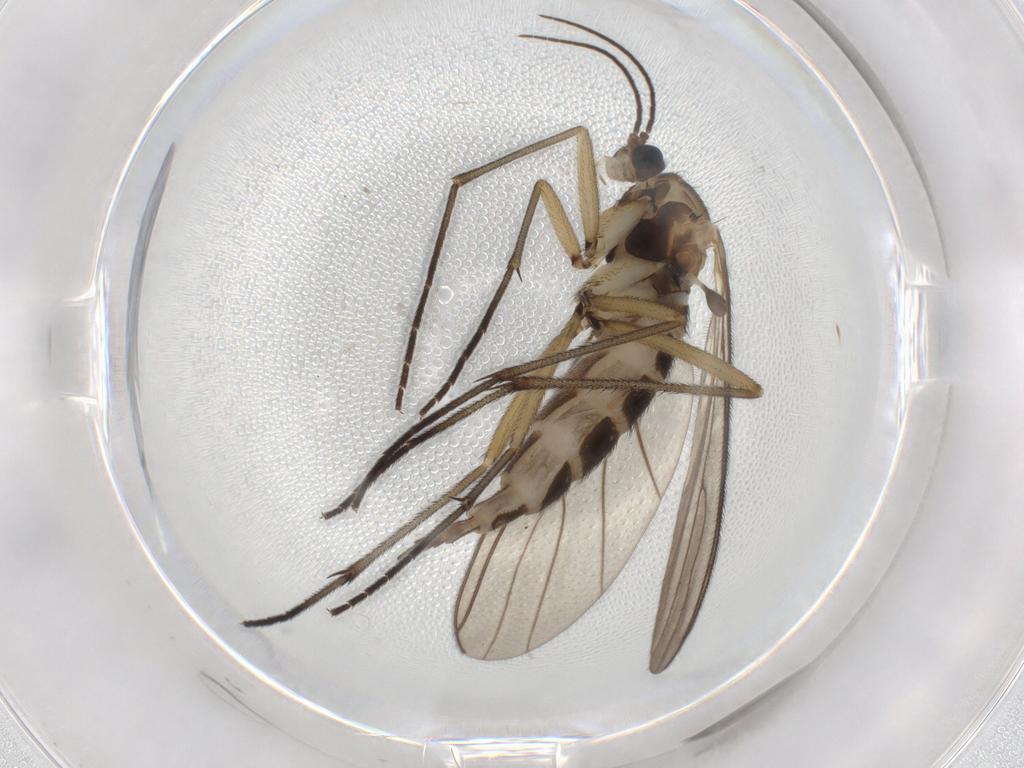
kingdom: Animalia
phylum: Arthropoda
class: Insecta
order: Diptera
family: Sciaridae
